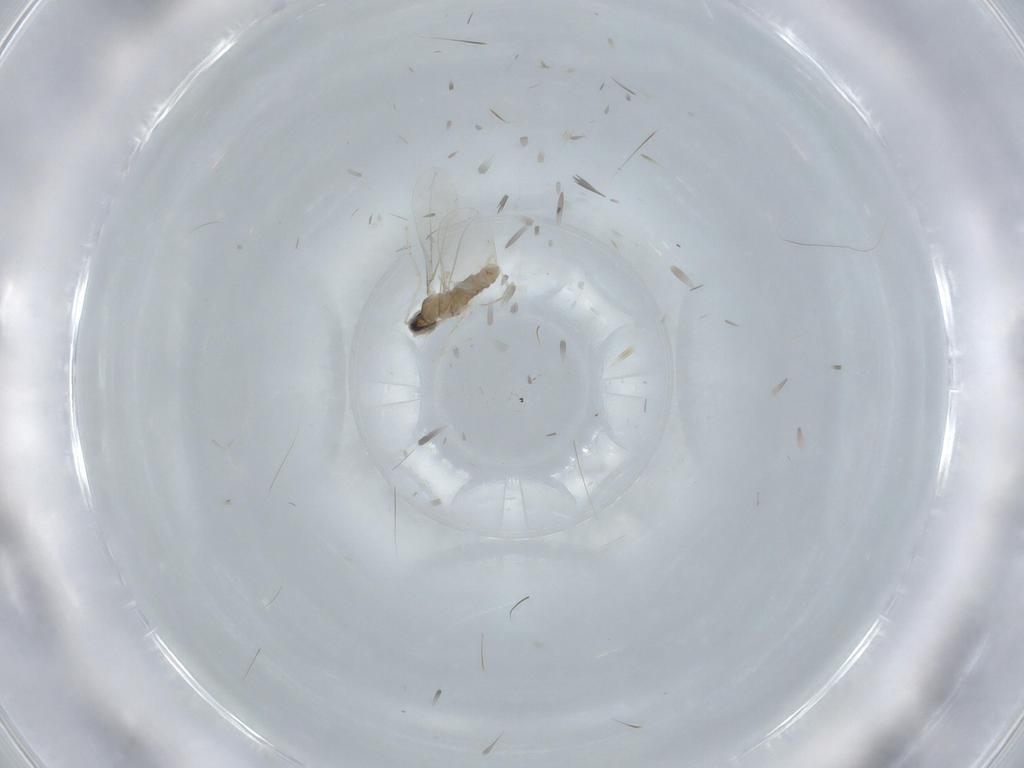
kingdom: Animalia
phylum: Arthropoda
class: Insecta
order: Diptera
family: Cecidomyiidae
